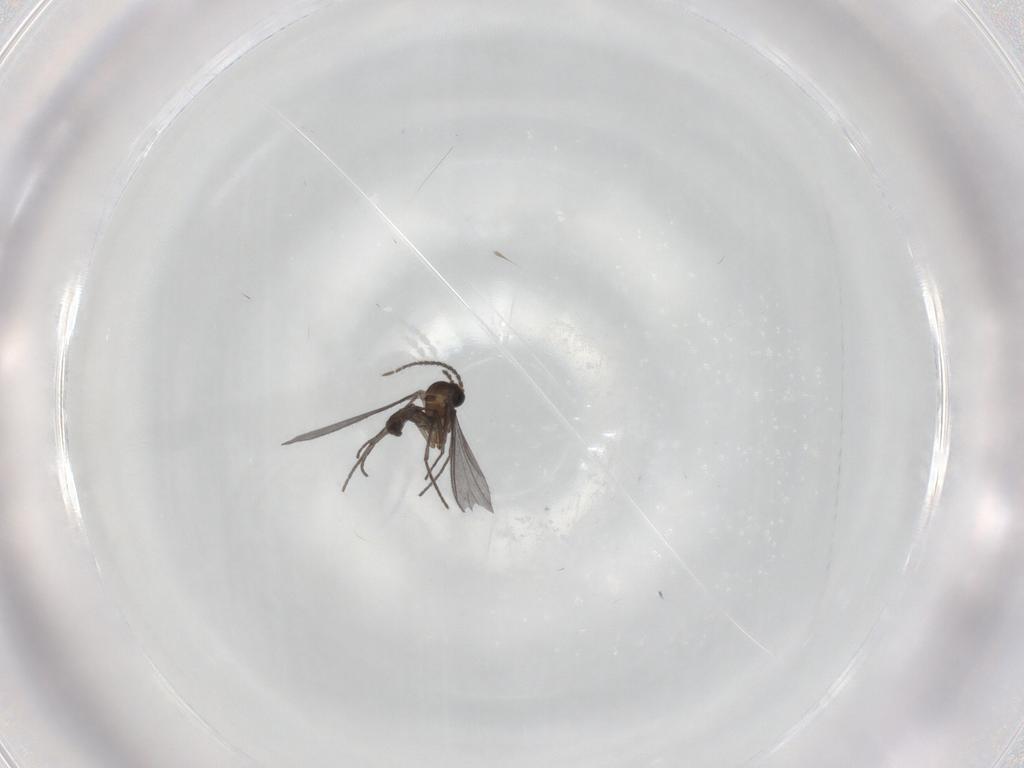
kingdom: Animalia
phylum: Arthropoda
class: Insecta
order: Diptera
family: Sciaridae
